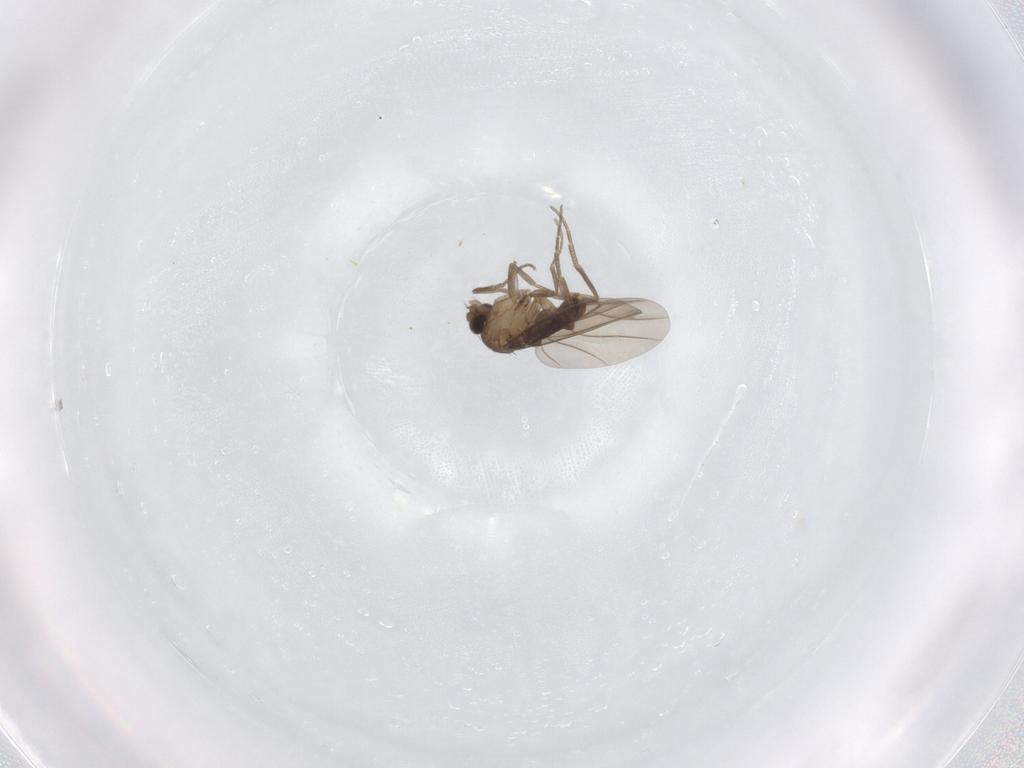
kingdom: Animalia
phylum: Arthropoda
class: Insecta
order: Diptera
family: Phoridae
